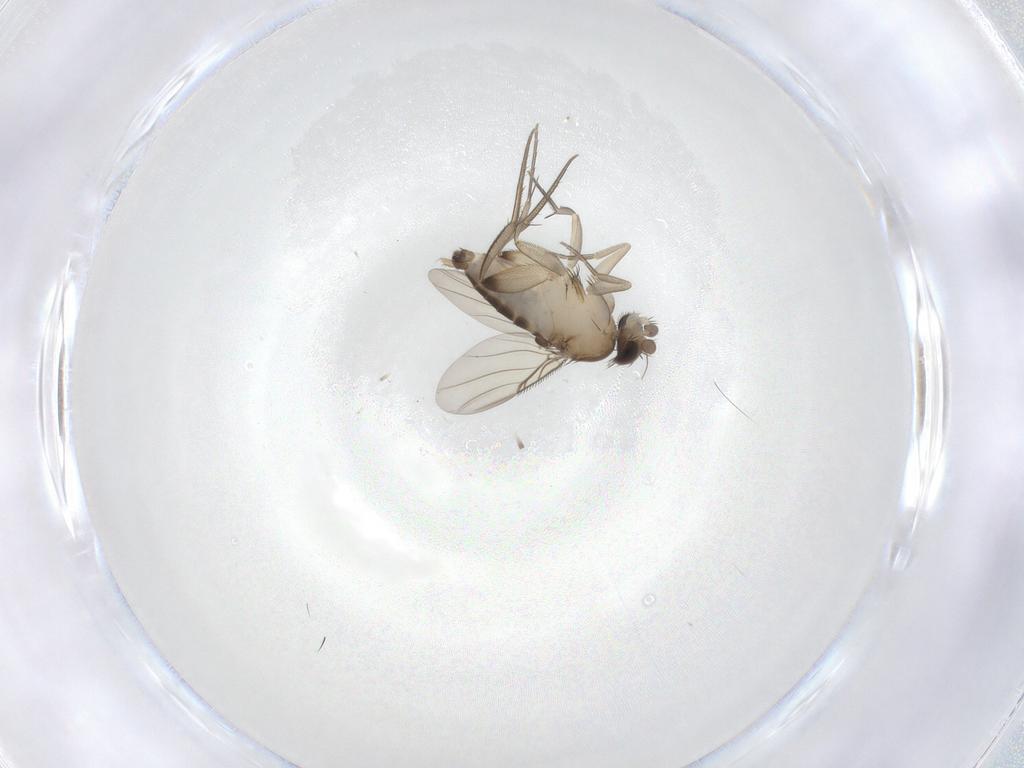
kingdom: Animalia
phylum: Arthropoda
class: Insecta
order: Diptera
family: Phoridae
